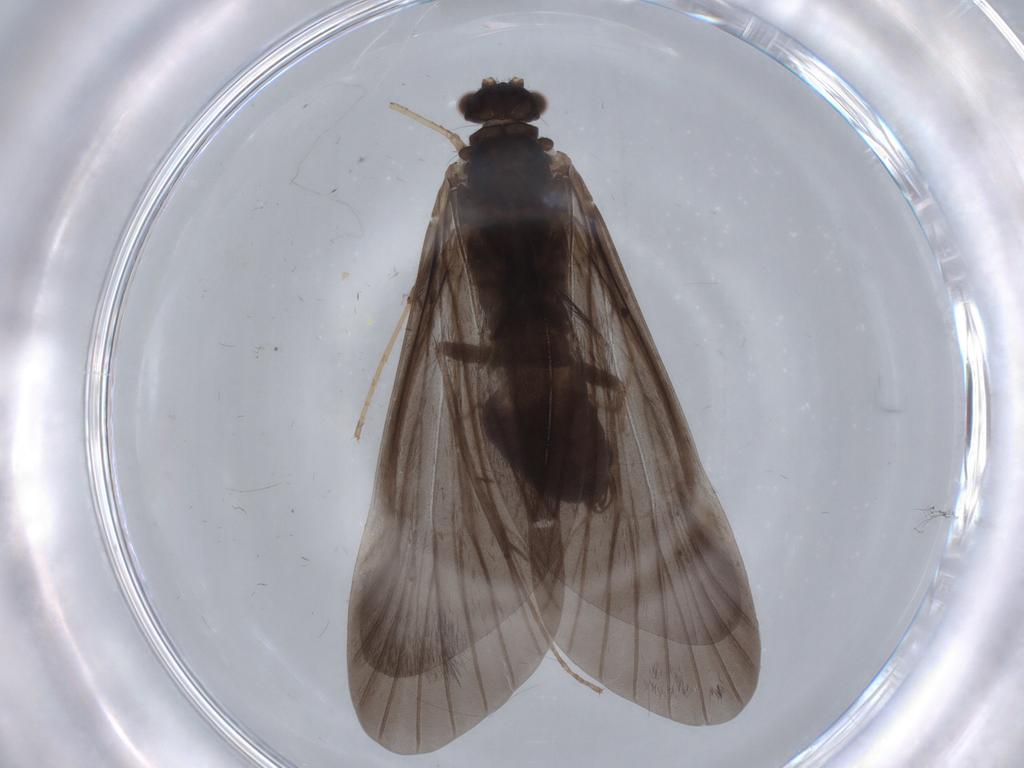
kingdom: Animalia
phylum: Arthropoda
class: Insecta
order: Trichoptera
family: Hydropsychidae
